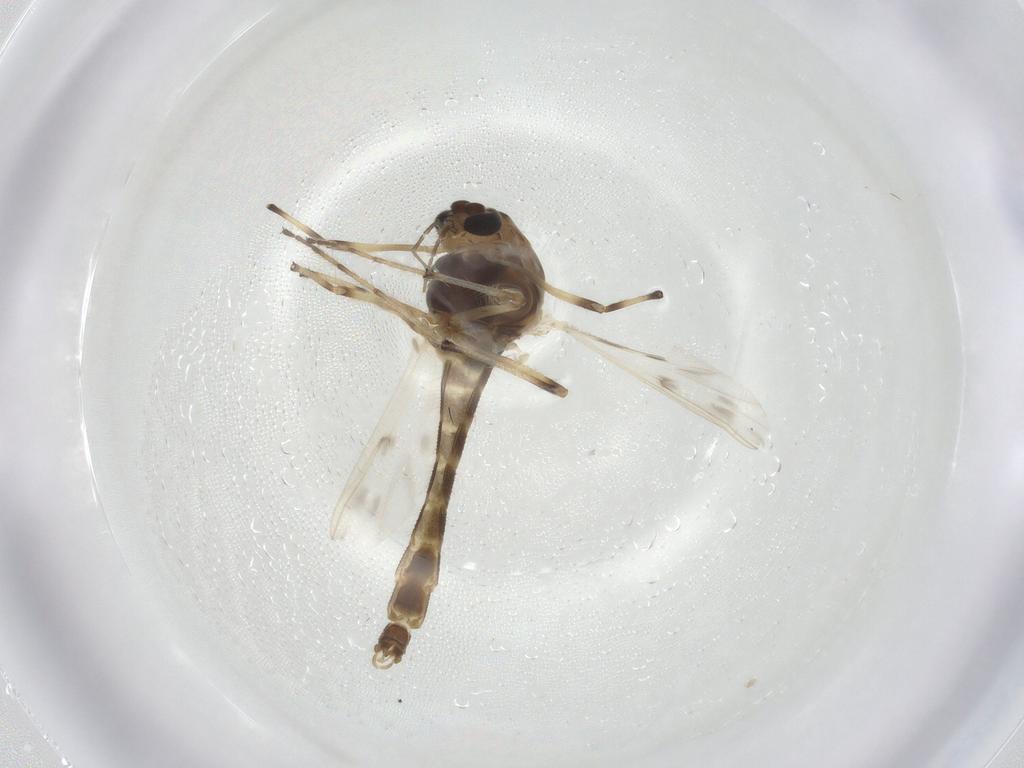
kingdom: Animalia
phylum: Arthropoda
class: Insecta
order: Diptera
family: Chironomidae
